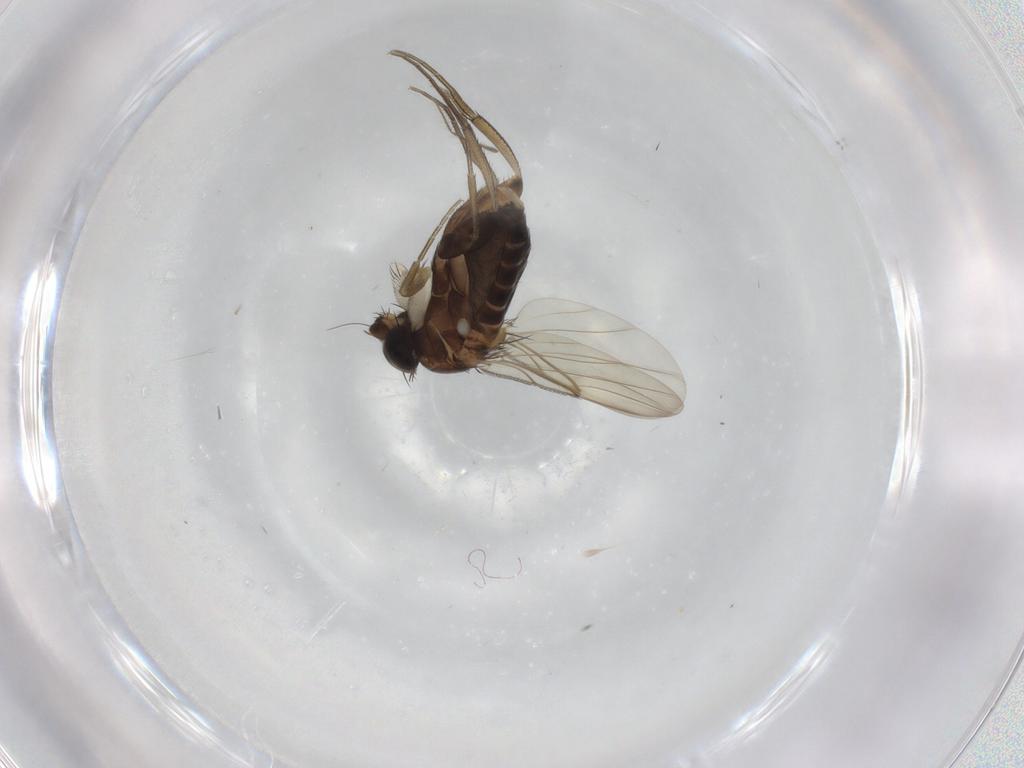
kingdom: Animalia
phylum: Arthropoda
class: Insecta
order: Diptera
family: Phoridae
